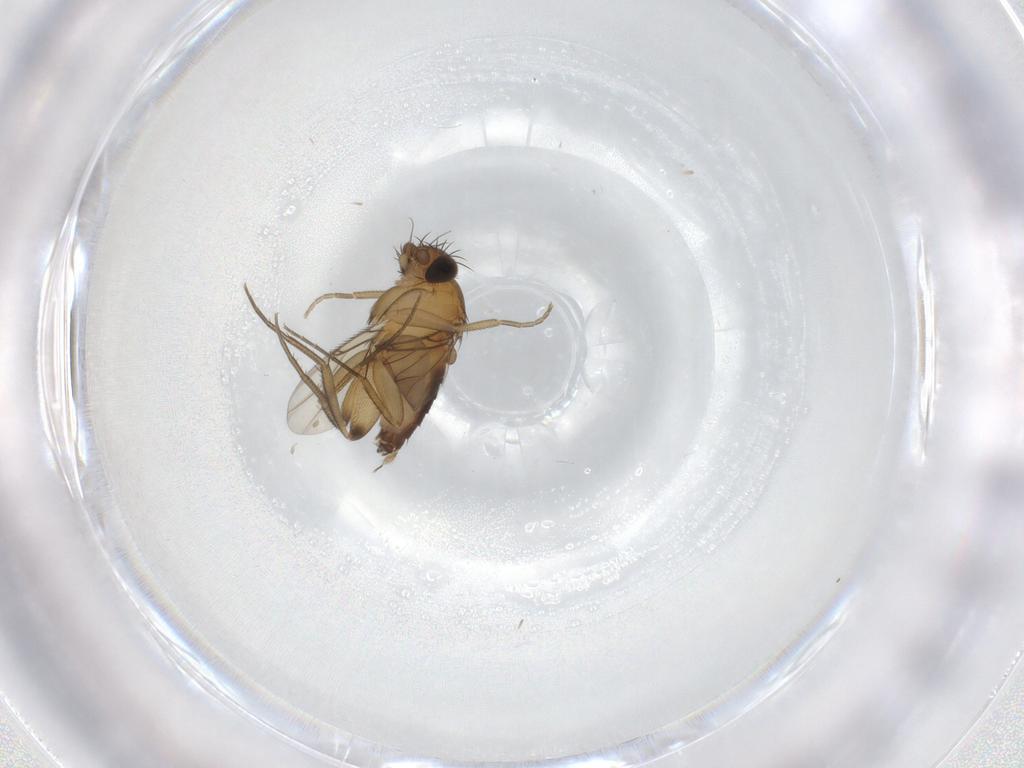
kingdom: Animalia
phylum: Arthropoda
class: Insecta
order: Diptera
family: Phoridae
